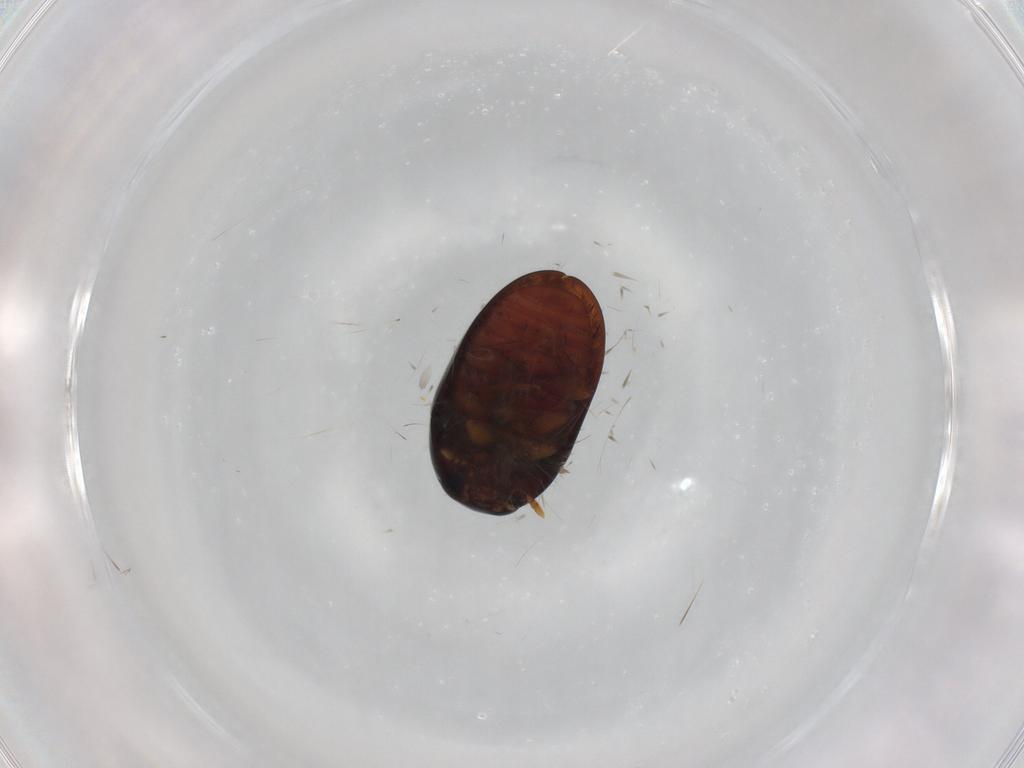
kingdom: Animalia
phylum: Arthropoda
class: Insecta
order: Coleoptera
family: Phalacridae
